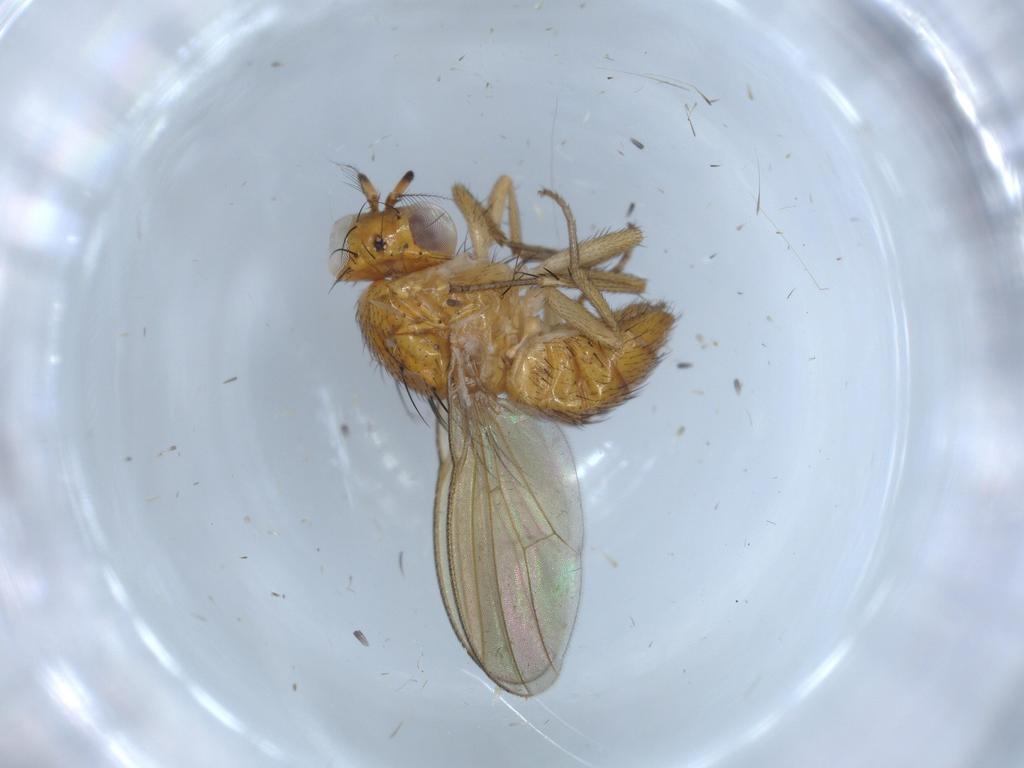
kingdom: Animalia
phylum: Arthropoda
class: Insecta
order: Diptera
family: Lauxaniidae
